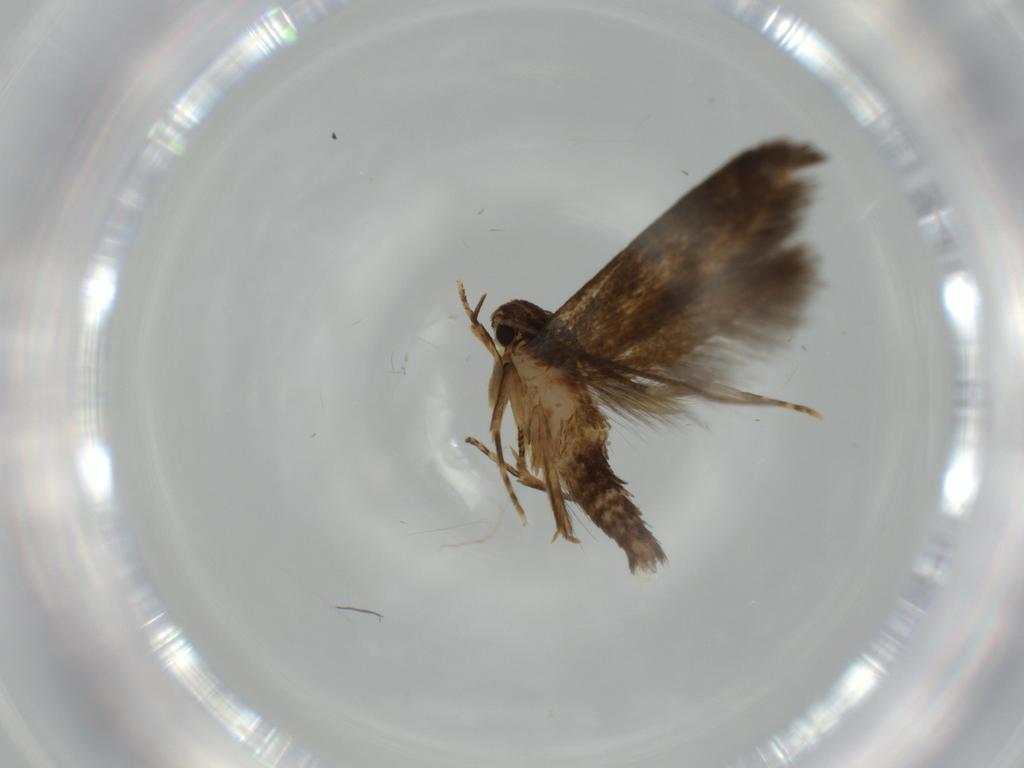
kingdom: Animalia
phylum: Arthropoda
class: Insecta
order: Lepidoptera
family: Tineidae
